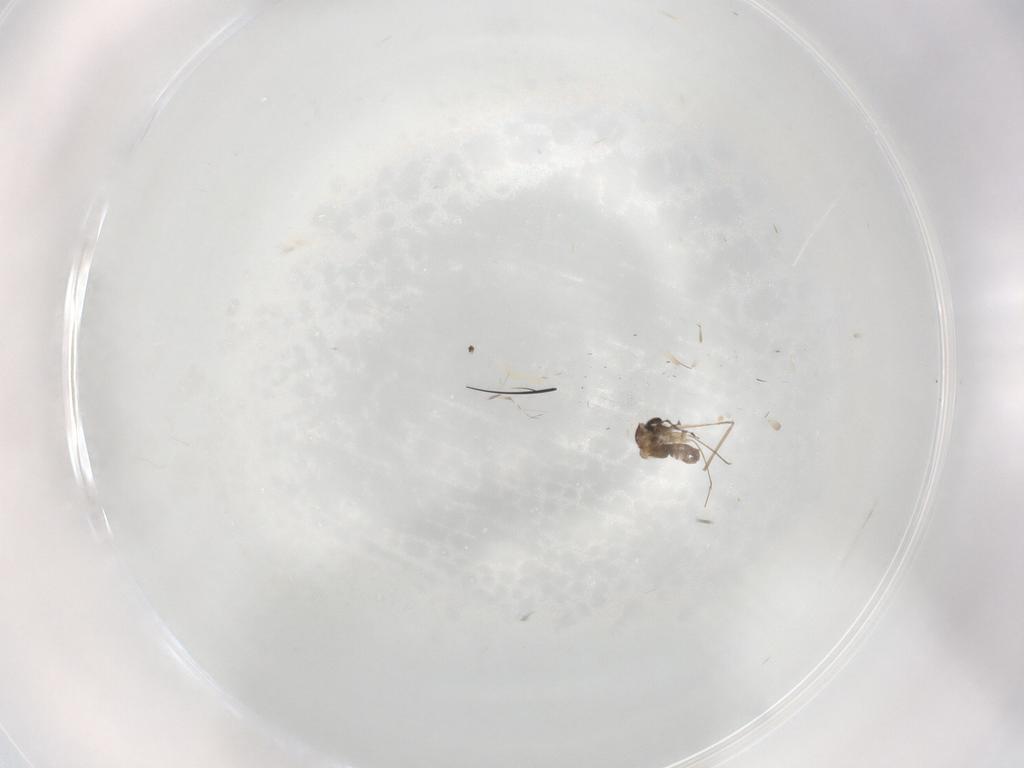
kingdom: Animalia
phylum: Arthropoda
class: Insecta
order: Diptera
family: Cecidomyiidae
